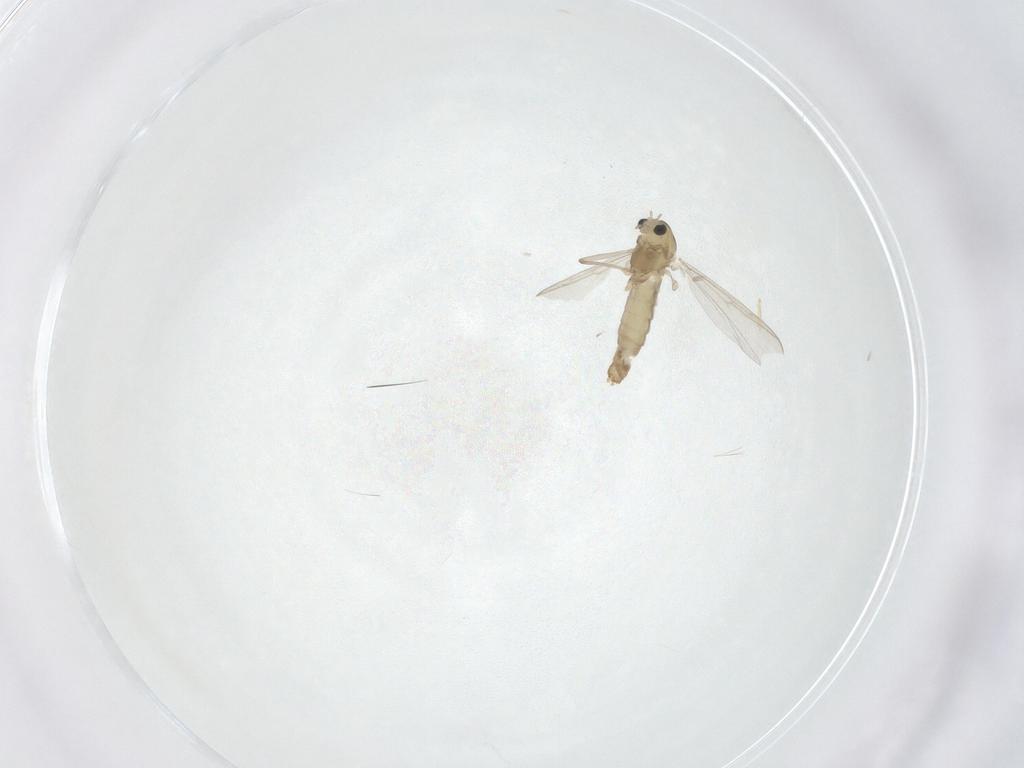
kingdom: Animalia
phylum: Arthropoda
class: Insecta
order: Diptera
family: Chironomidae
